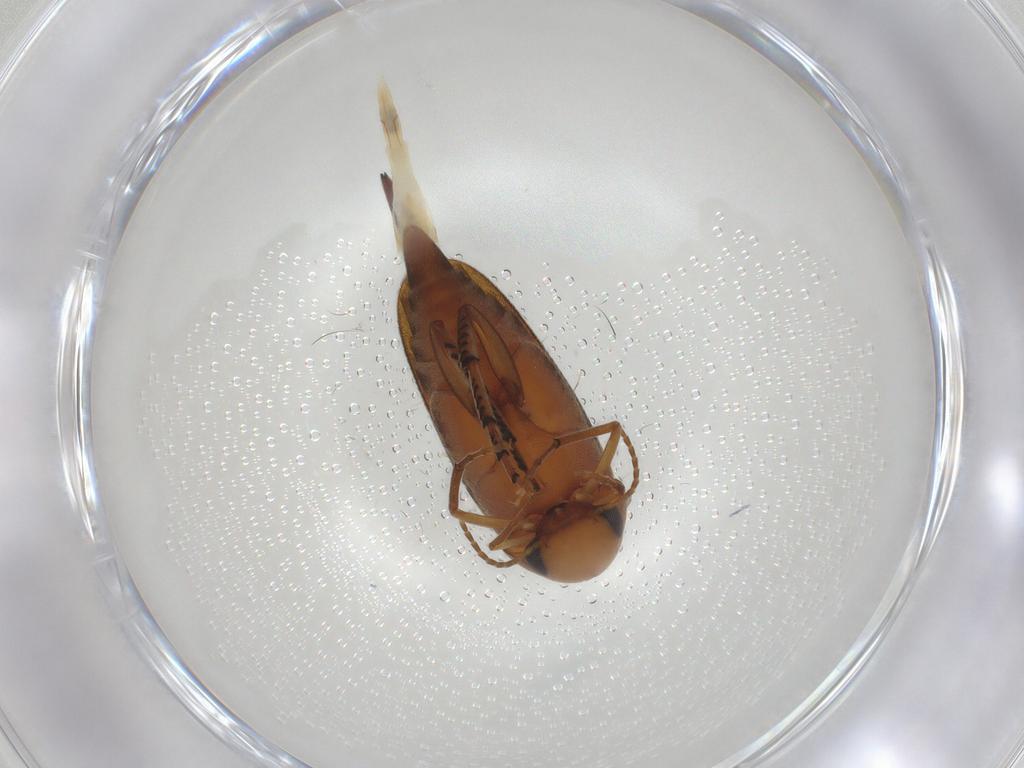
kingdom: Animalia
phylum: Arthropoda
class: Insecta
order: Coleoptera
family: Mordellidae
